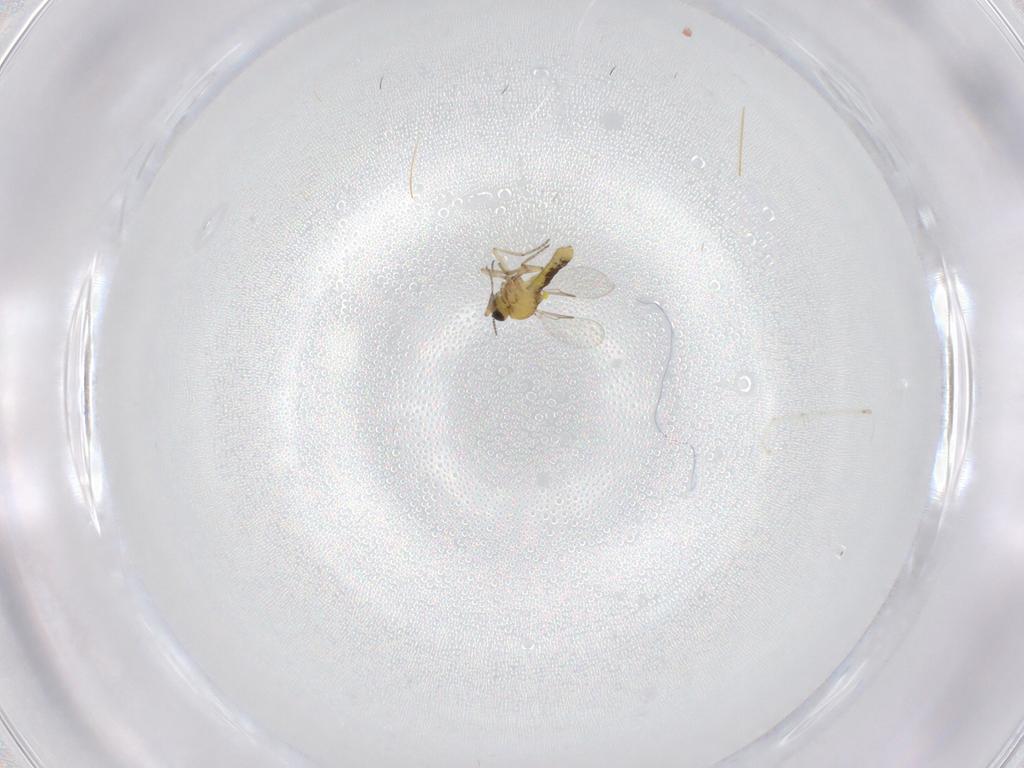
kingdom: Animalia
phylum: Arthropoda
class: Insecta
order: Diptera
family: Cecidomyiidae
